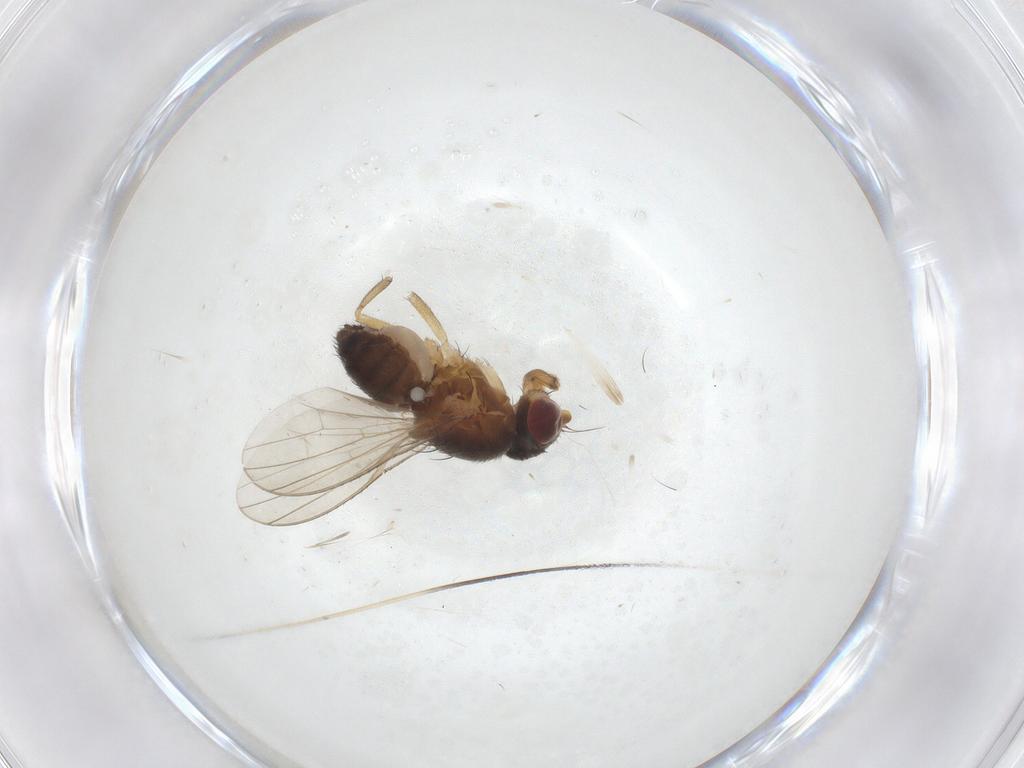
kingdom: Animalia
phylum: Arthropoda
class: Insecta
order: Diptera
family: Heleomyzidae
